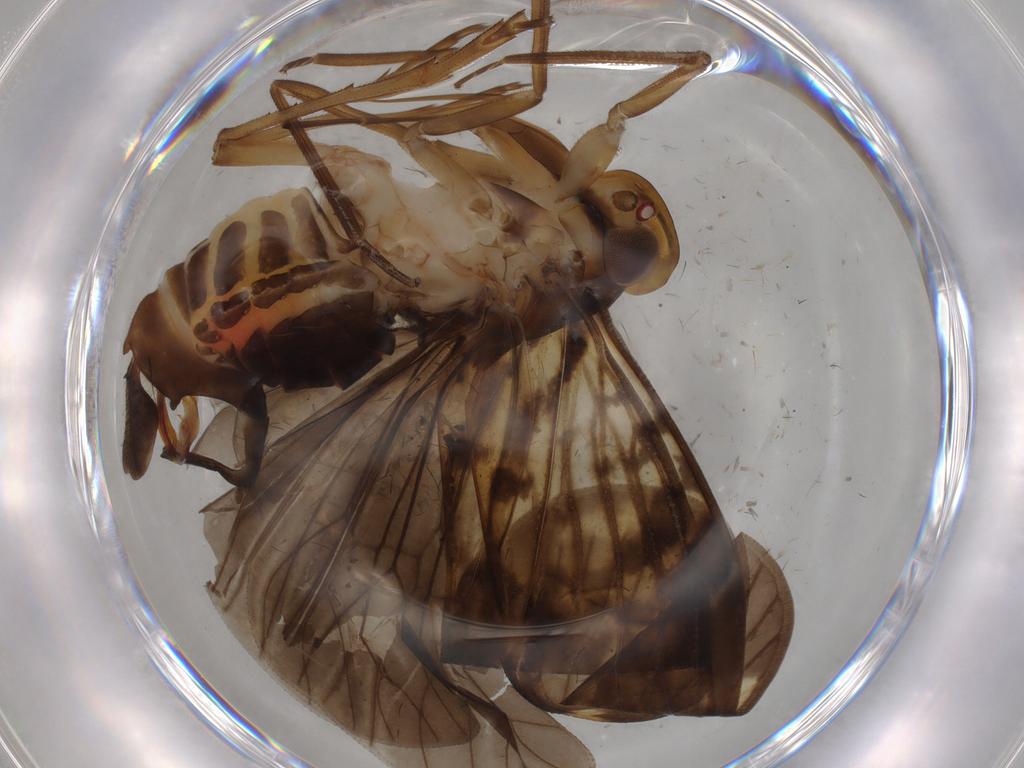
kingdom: Animalia
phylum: Arthropoda
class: Insecta
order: Hemiptera
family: Cixiidae
